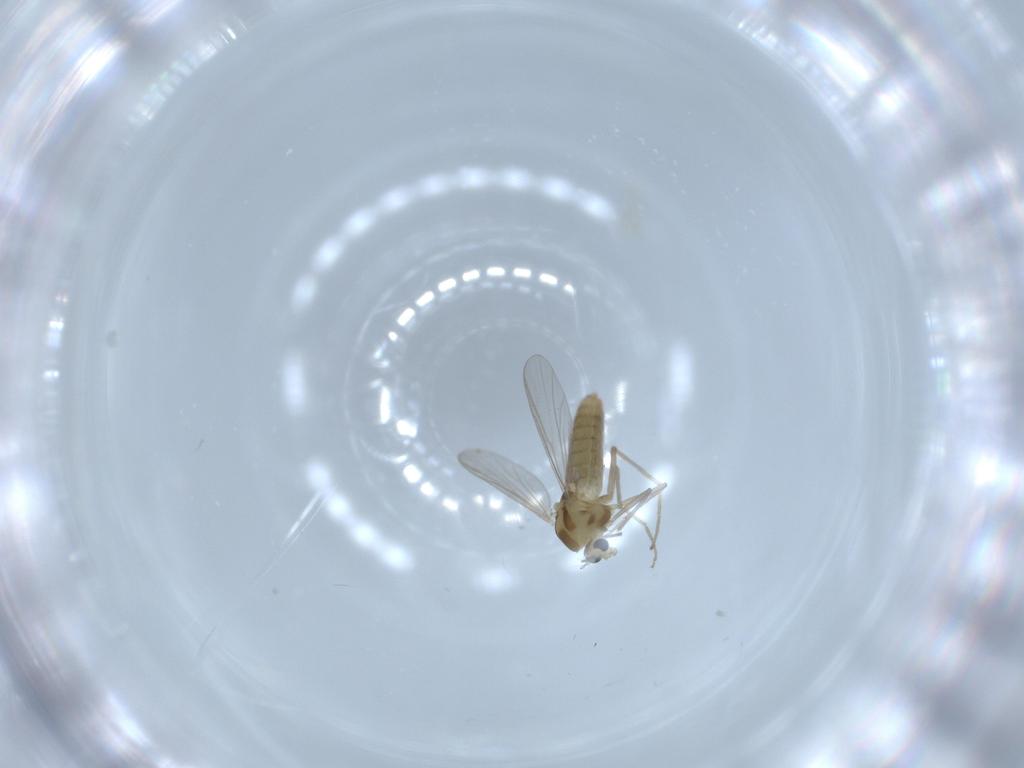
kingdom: Animalia
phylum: Arthropoda
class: Insecta
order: Diptera
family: Chironomidae
